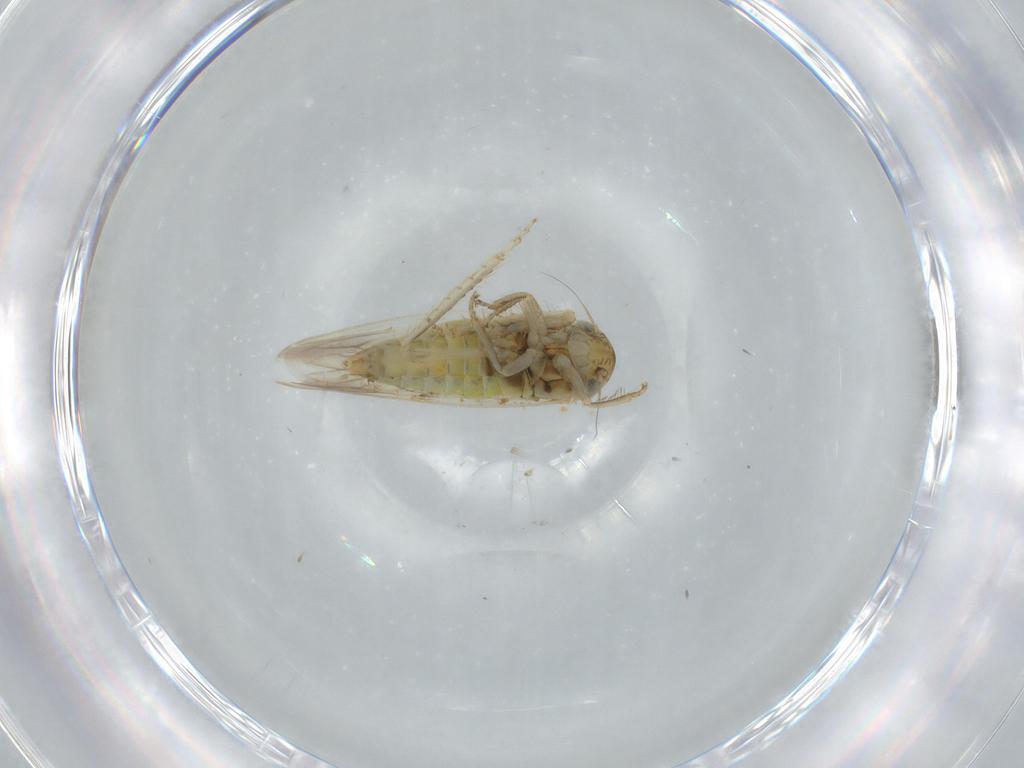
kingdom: Animalia
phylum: Arthropoda
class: Insecta
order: Hemiptera
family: Cicadellidae
